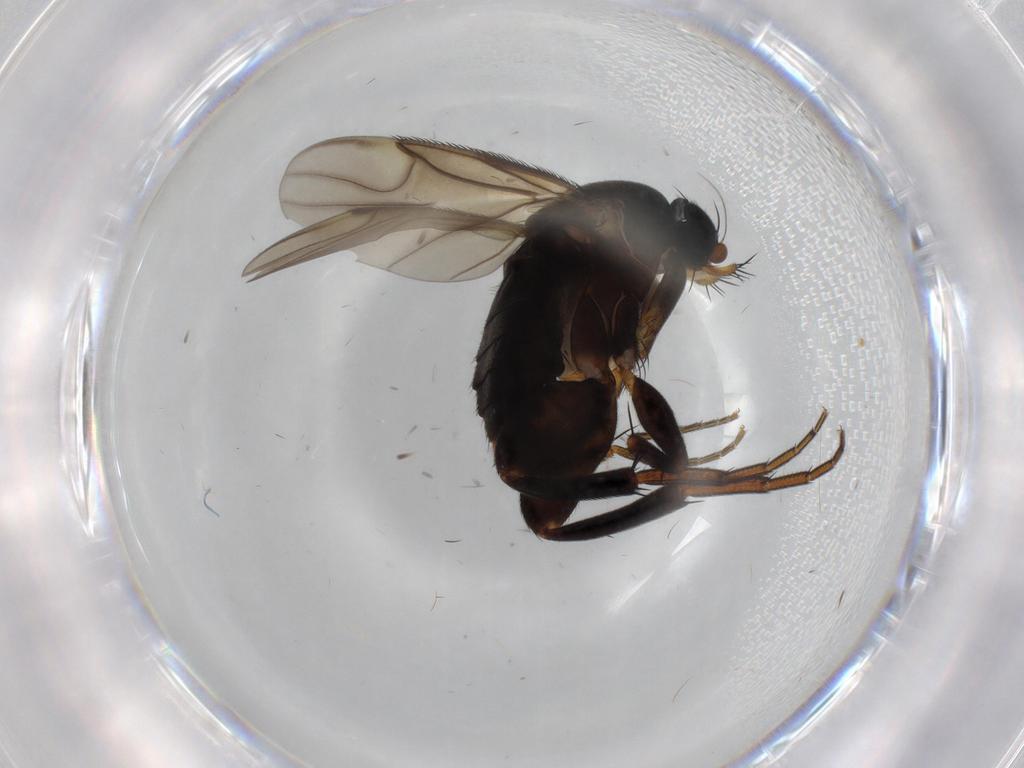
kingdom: Animalia
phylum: Arthropoda
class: Insecta
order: Diptera
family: Phoridae
